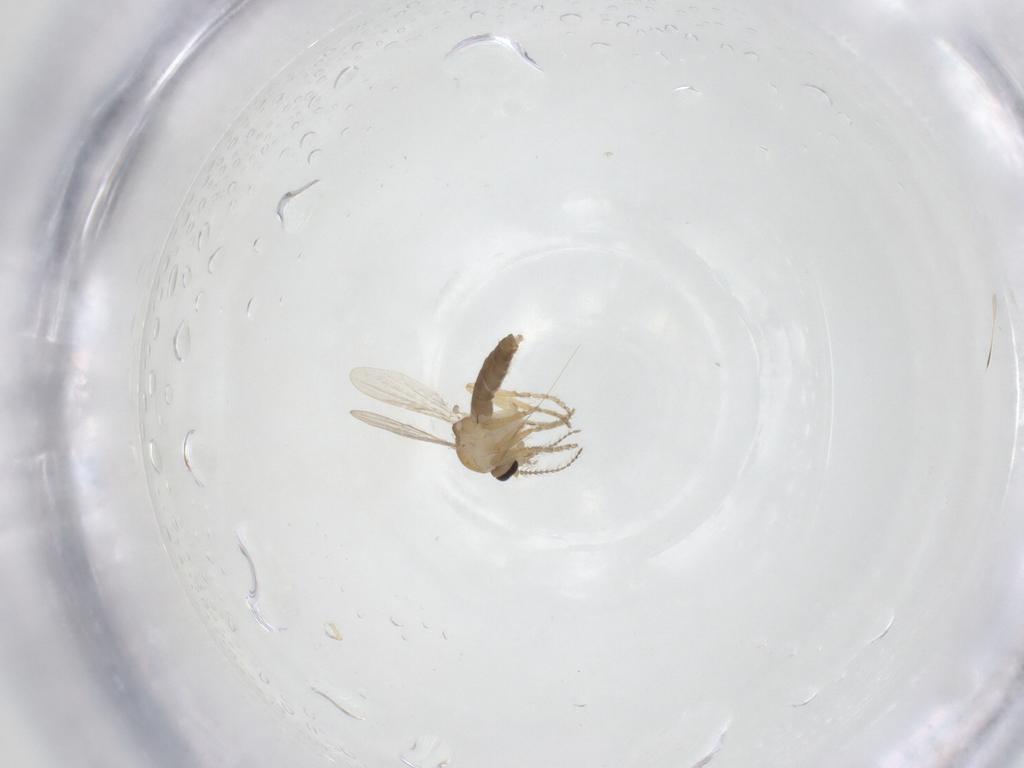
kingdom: Animalia
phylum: Arthropoda
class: Insecta
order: Diptera
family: Ceratopogonidae
